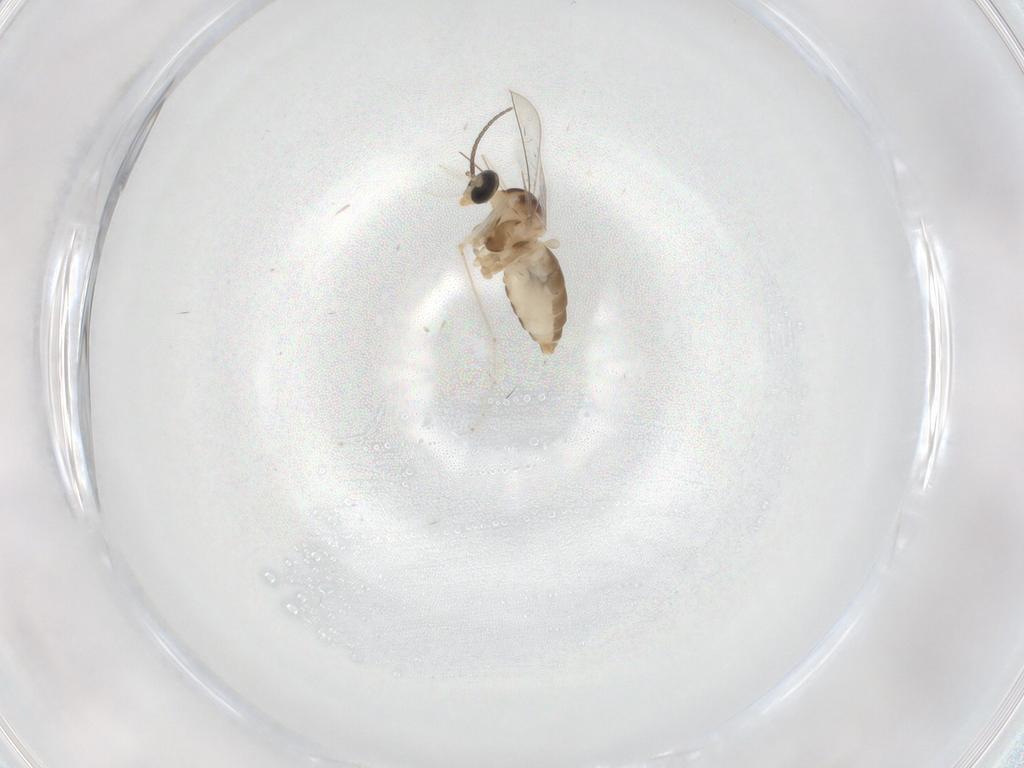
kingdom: Animalia
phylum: Arthropoda
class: Insecta
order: Diptera
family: Cecidomyiidae
